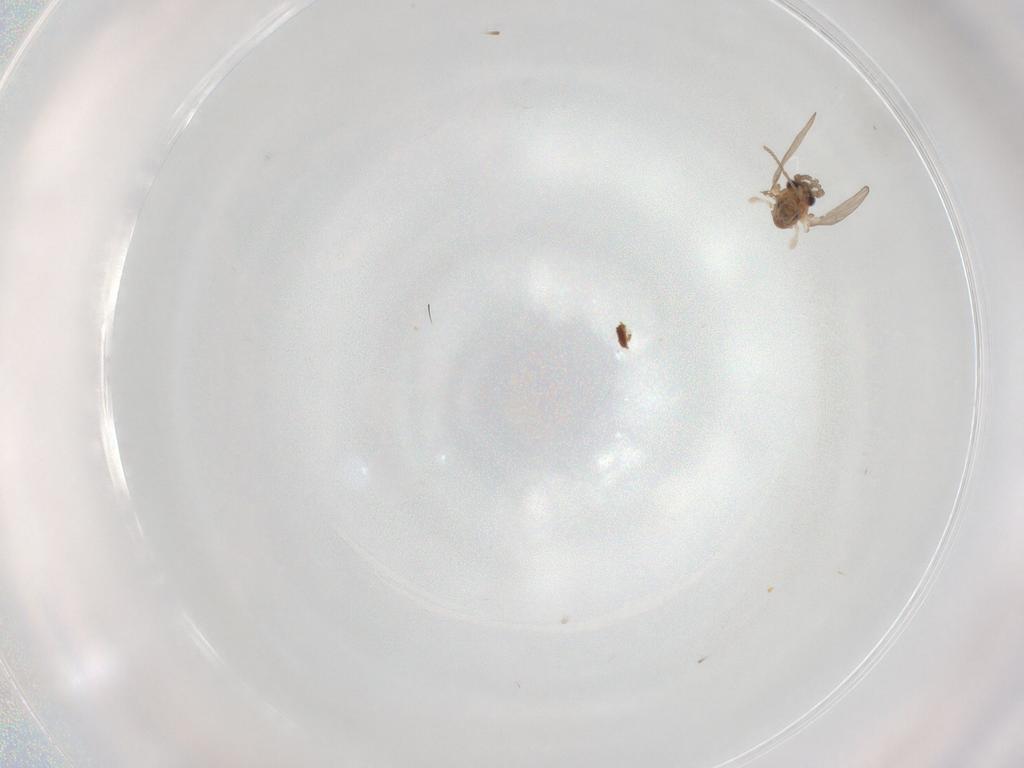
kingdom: Animalia
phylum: Arthropoda
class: Insecta
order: Diptera
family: Psychodidae
